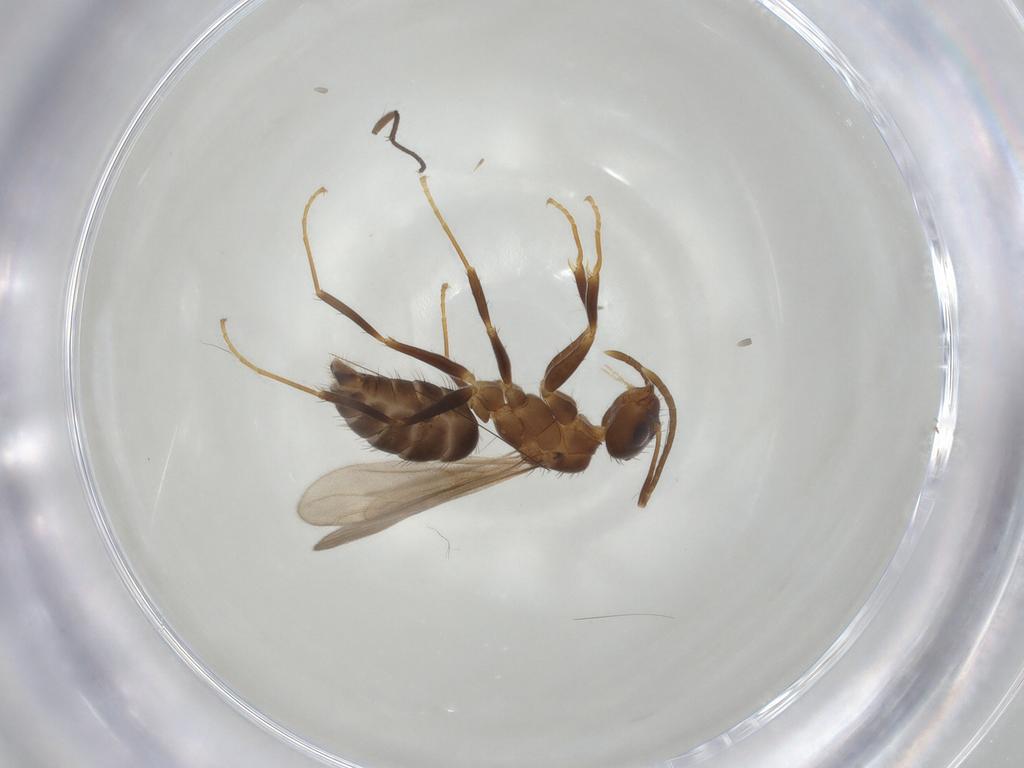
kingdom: Animalia
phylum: Arthropoda
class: Insecta
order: Hymenoptera
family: Formicidae
